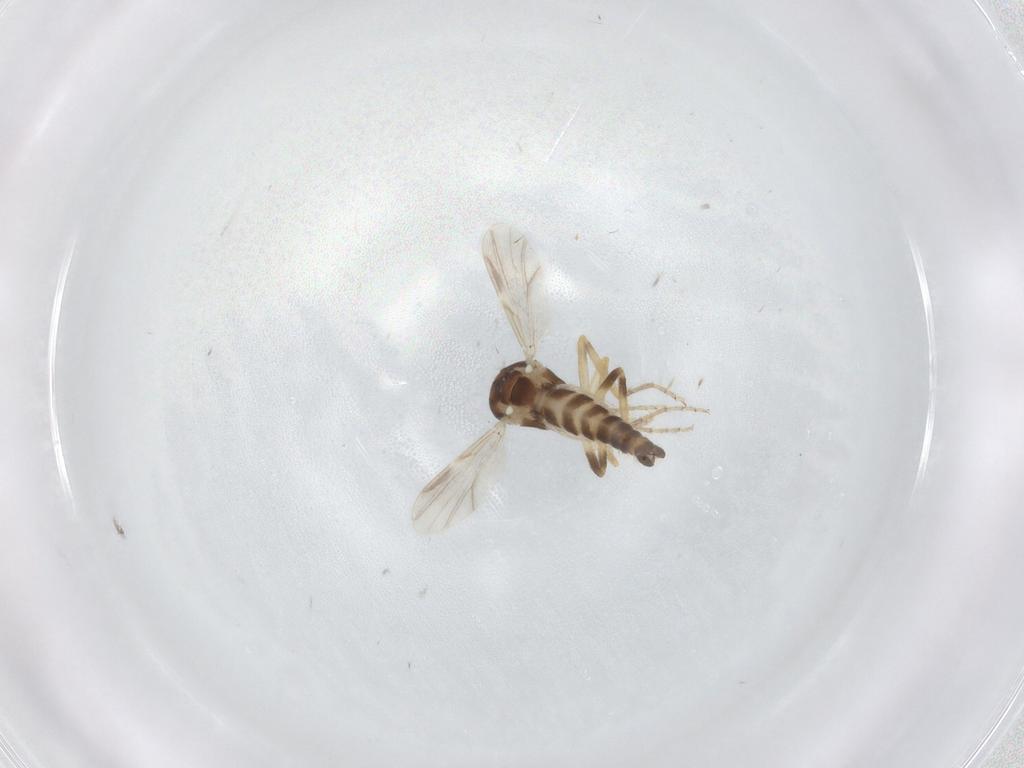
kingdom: Animalia
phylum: Arthropoda
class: Insecta
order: Diptera
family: Ceratopogonidae
